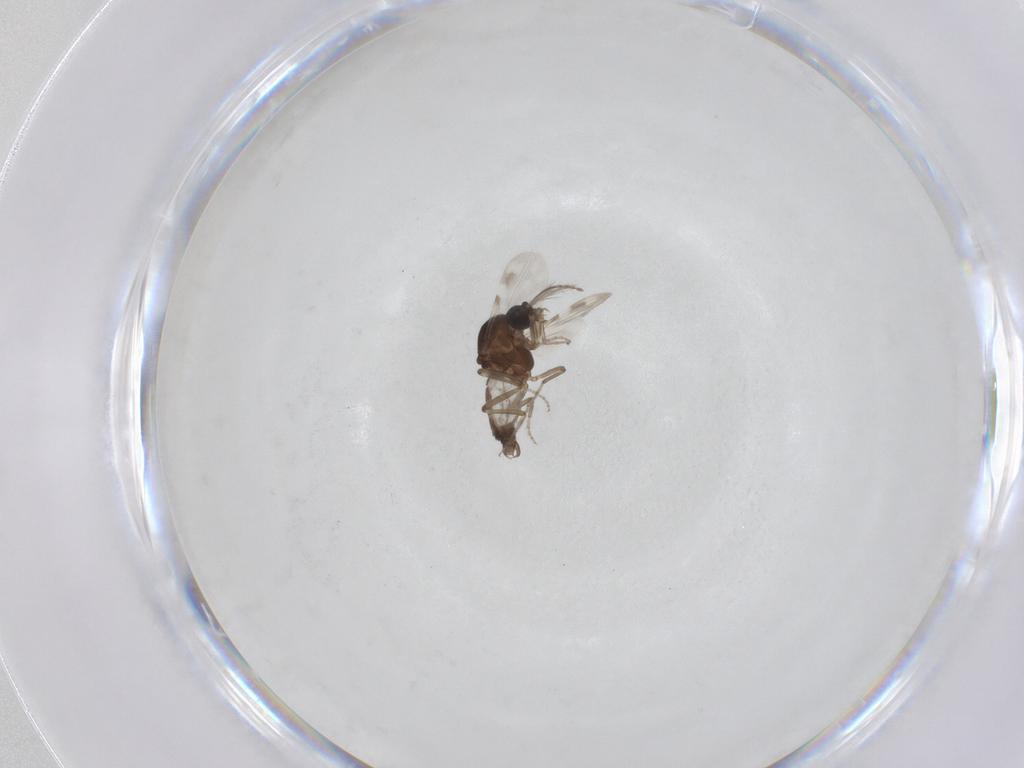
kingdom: Animalia
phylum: Arthropoda
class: Insecta
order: Diptera
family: Ceratopogonidae
